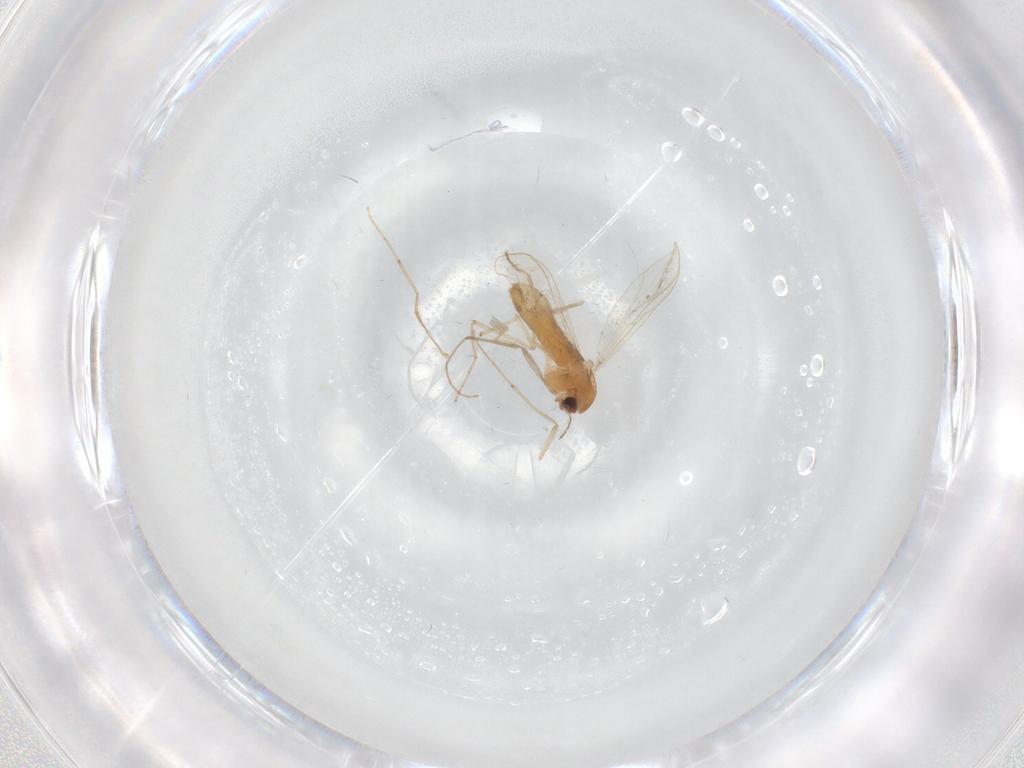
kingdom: Animalia
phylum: Arthropoda
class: Insecta
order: Diptera
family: Chironomidae
